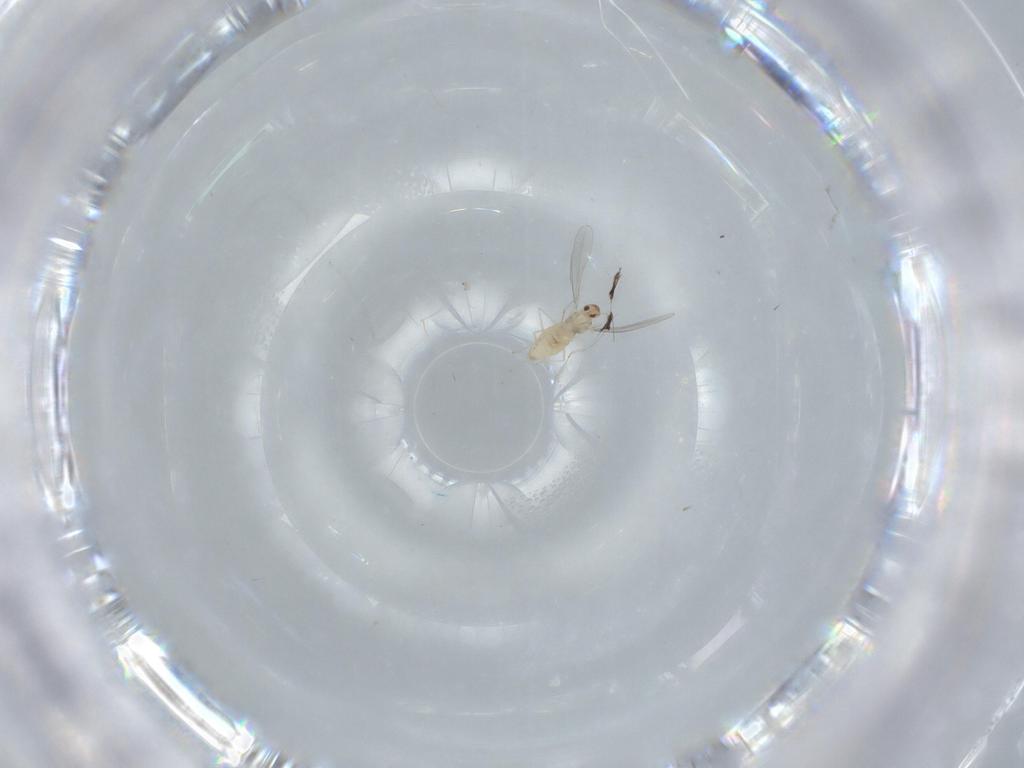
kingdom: Animalia
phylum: Arthropoda
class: Insecta
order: Diptera
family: Cecidomyiidae
